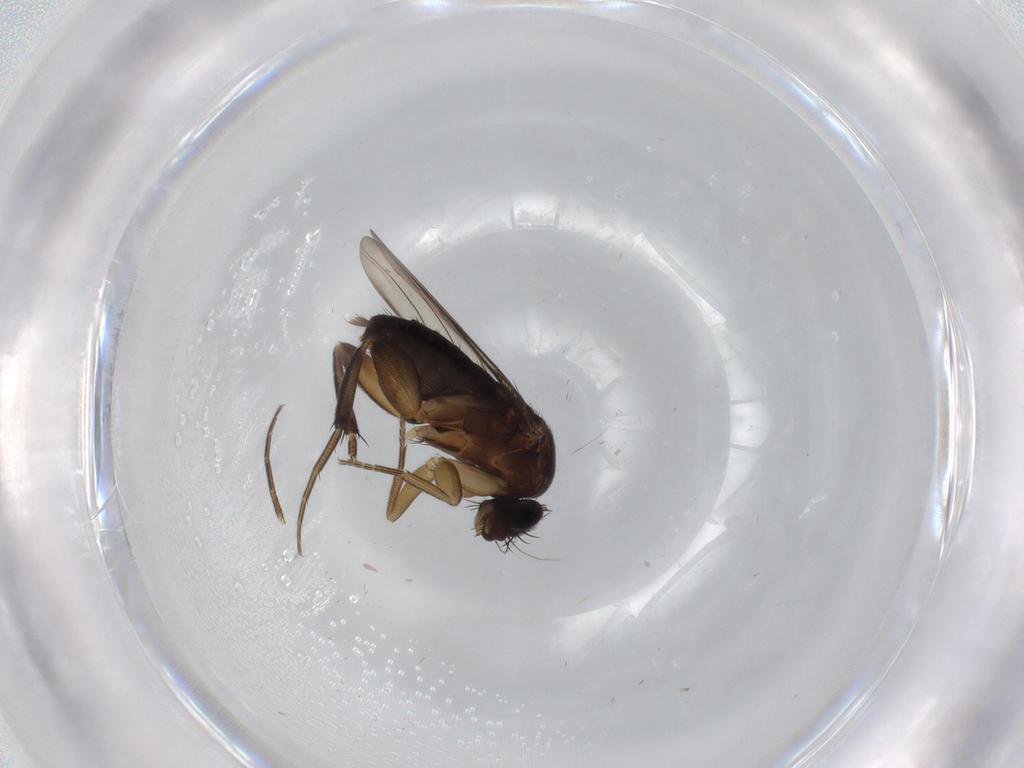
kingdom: Animalia
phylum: Arthropoda
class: Insecta
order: Diptera
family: Phoridae
